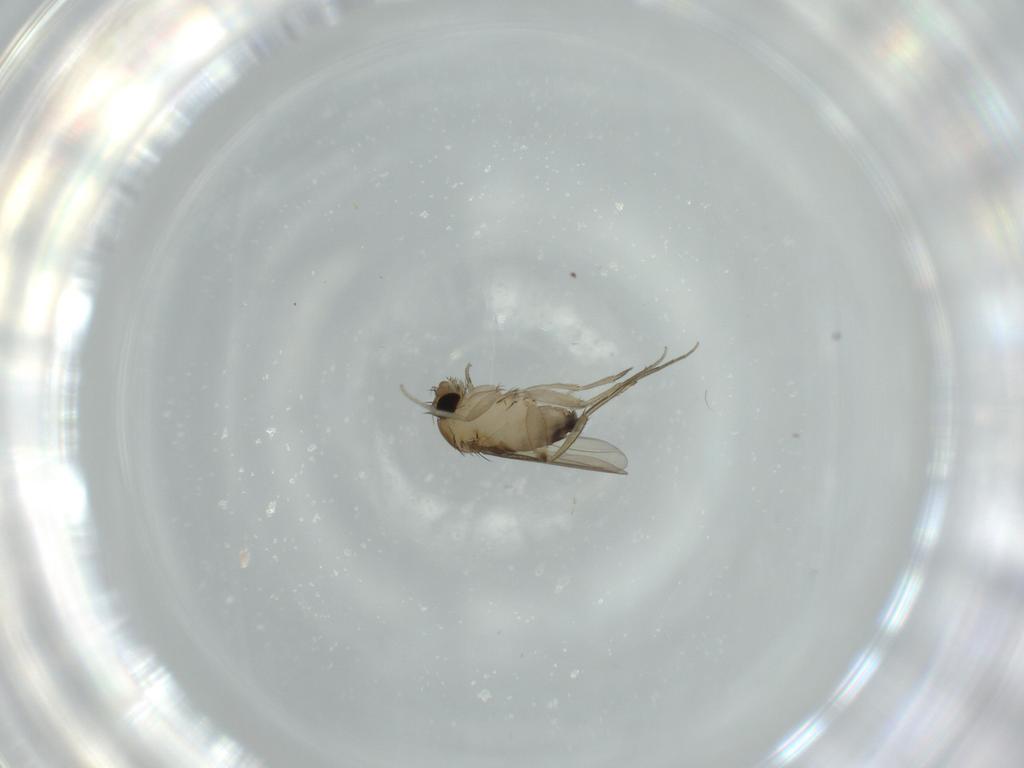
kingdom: Animalia
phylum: Arthropoda
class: Insecta
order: Diptera
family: Phoridae
